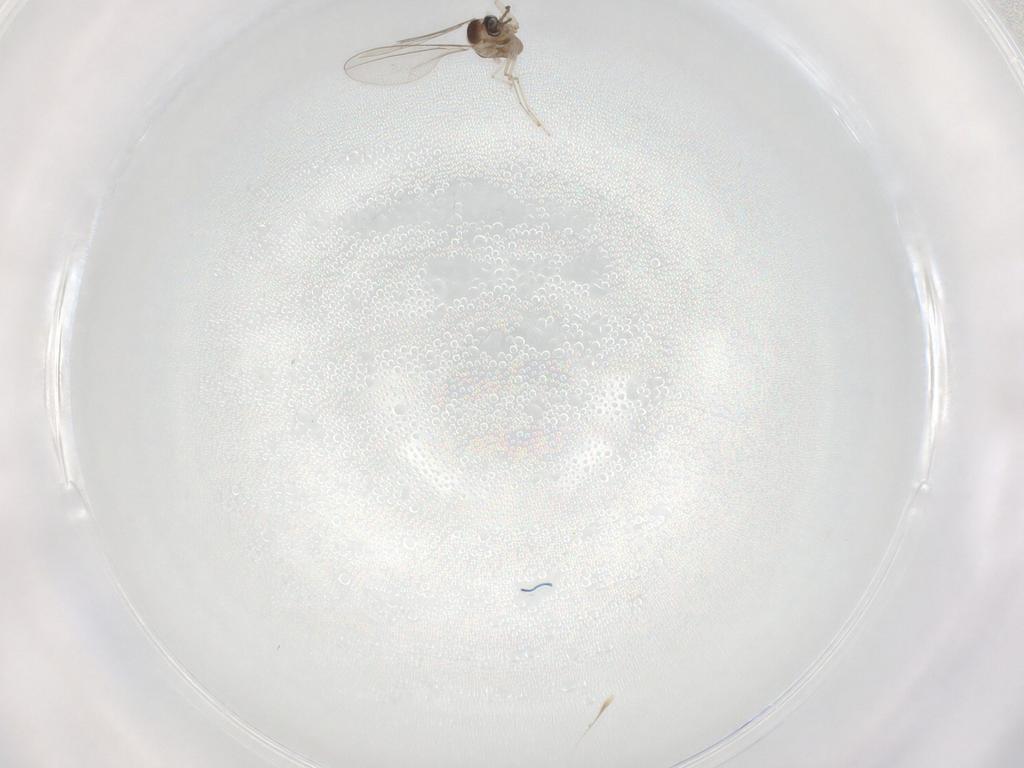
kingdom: Animalia
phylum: Arthropoda
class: Insecta
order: Diptera
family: Cecidomyiidae
